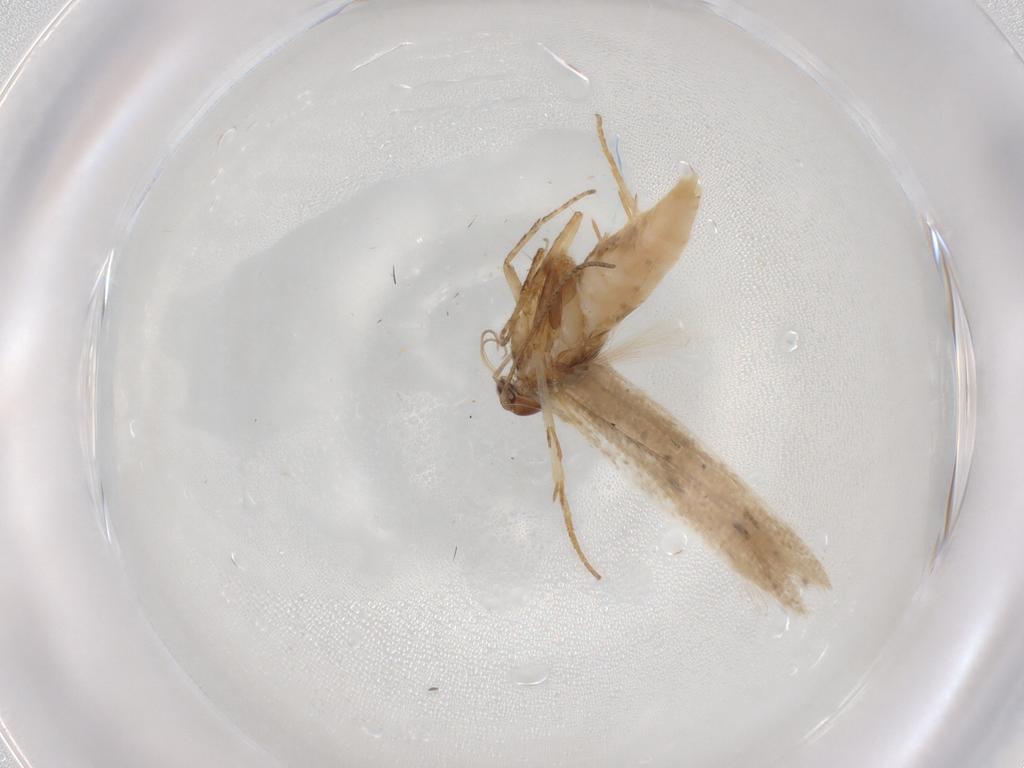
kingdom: Animalia
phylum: Arthropoda
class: Insecta
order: Lepidoptera
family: Crambidae
